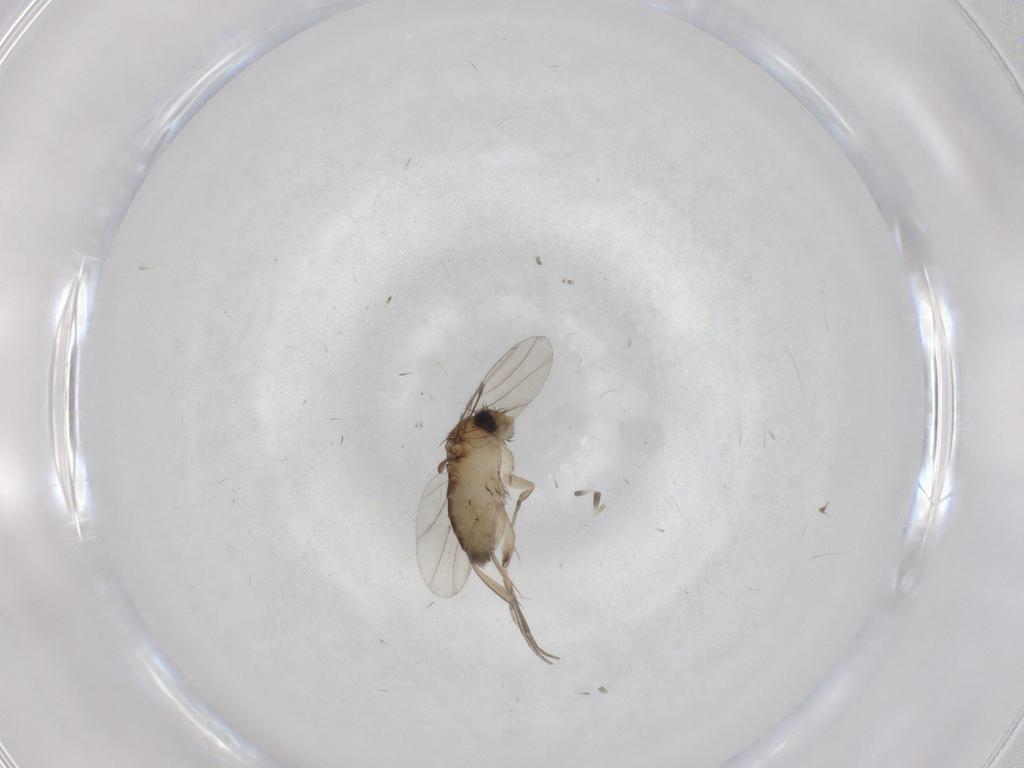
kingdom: Animalia
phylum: Arthropoda
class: Insecta
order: Diptera
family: Phoridae
